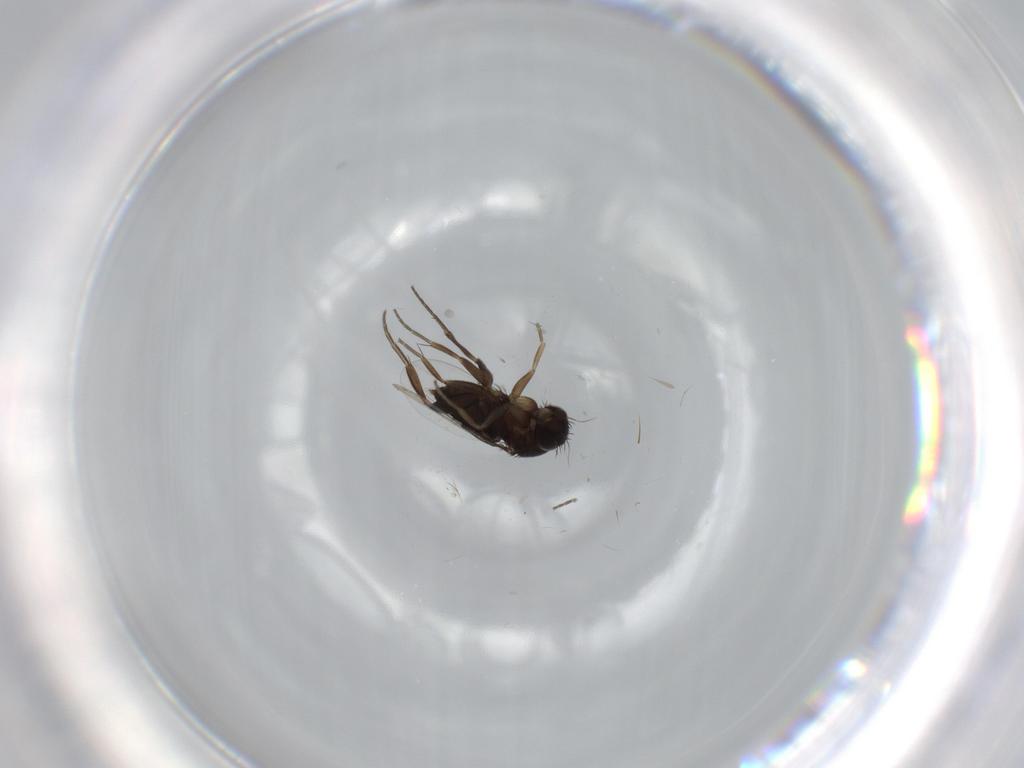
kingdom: Animalia
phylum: Arthropoda
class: Insecta
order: Diptera
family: Phoridae
